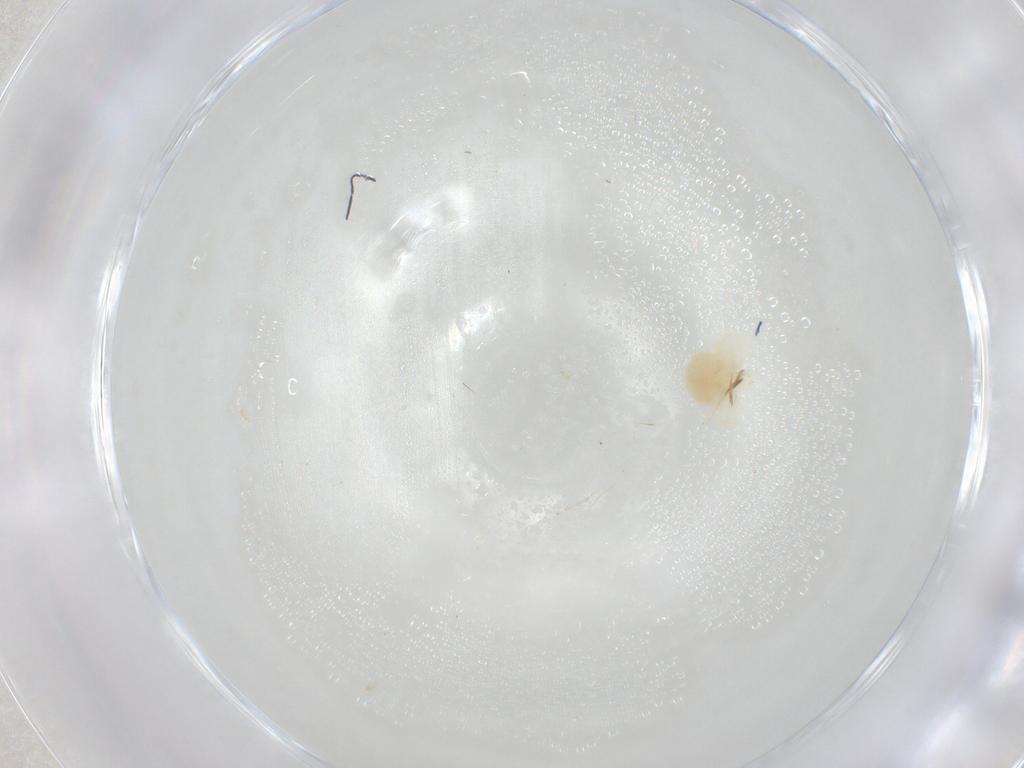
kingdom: Animalia
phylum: Arthropoda
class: Arachnida
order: Trombidiformes
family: Anystidae
